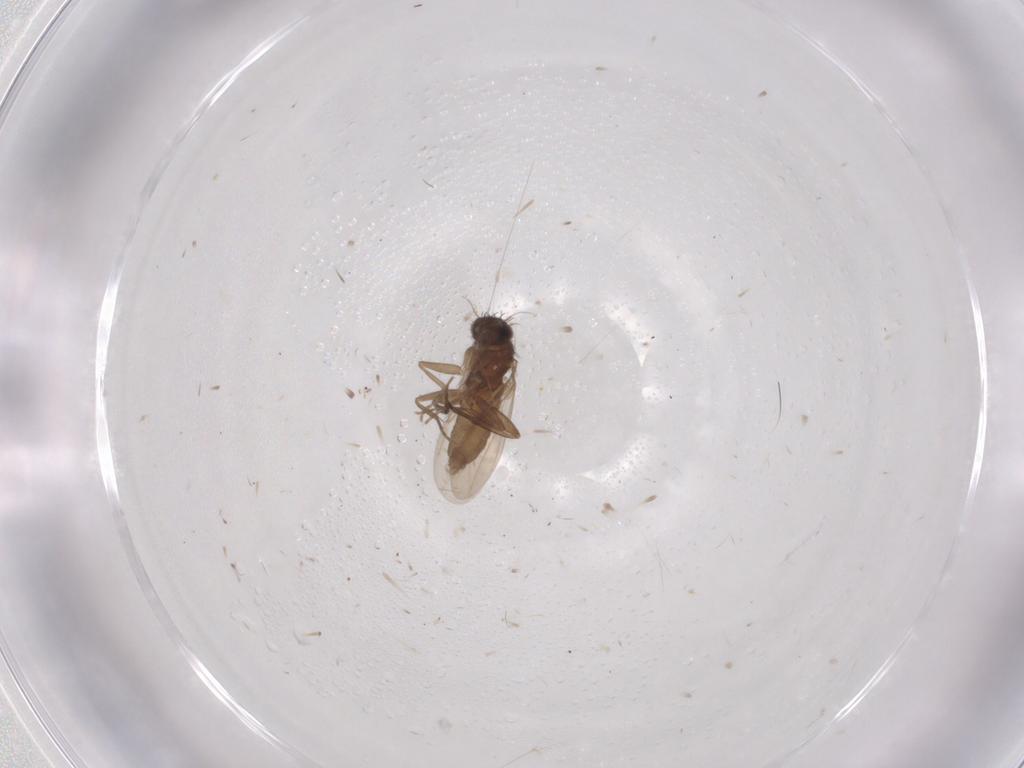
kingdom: Animalia
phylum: Arthropoda
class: Insecta
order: Diptera
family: Phoridae
